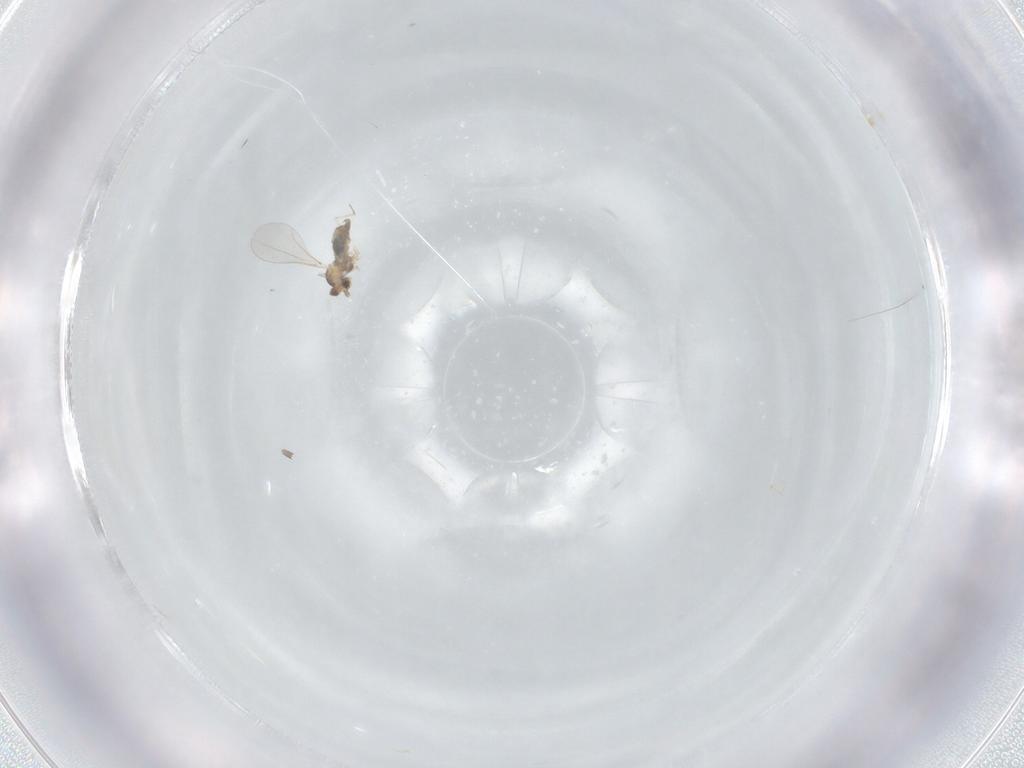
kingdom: Animalia
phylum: Arthropoda
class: Insecta
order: Diptera
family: Cecidomyiidae
